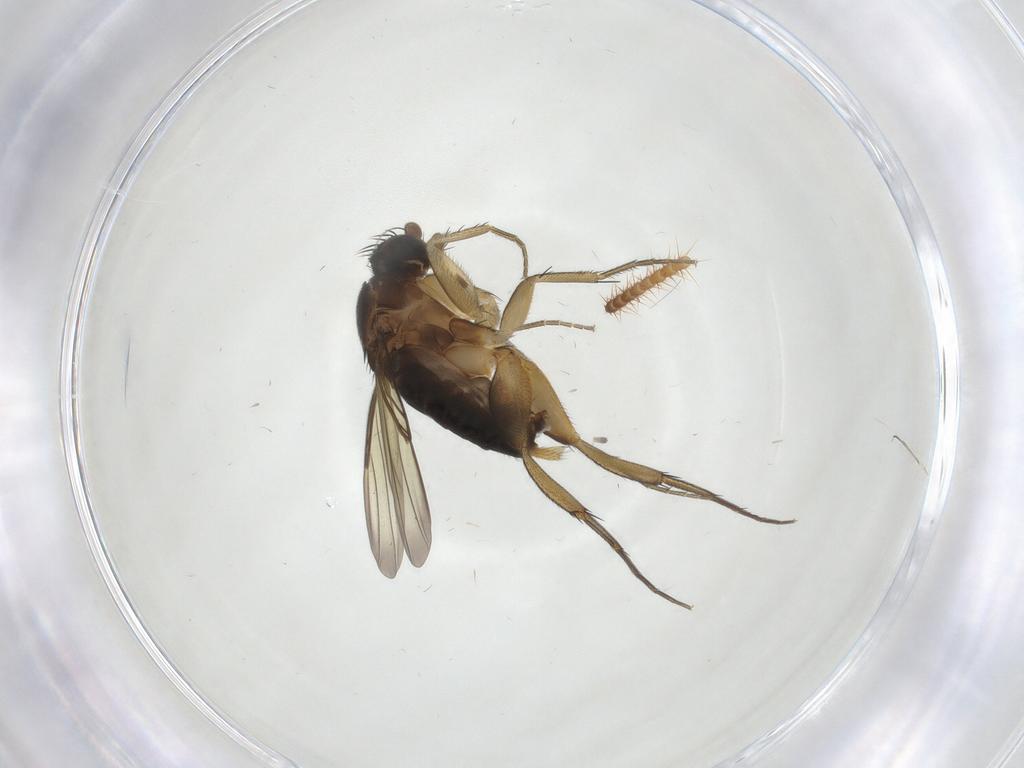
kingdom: Animalia
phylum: Arthropoda
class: Insecta
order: Diptera
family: Phoridae
